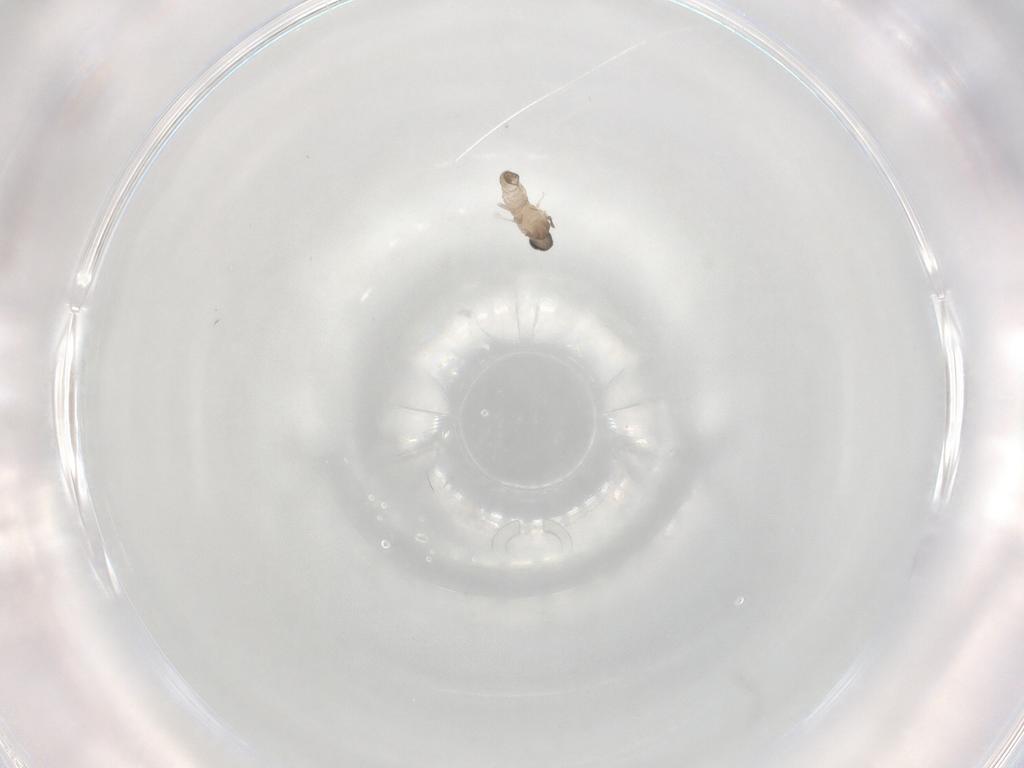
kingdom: Animalia
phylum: Arthropoda
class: Insecta
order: Diptera
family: Cecidomyiidae
